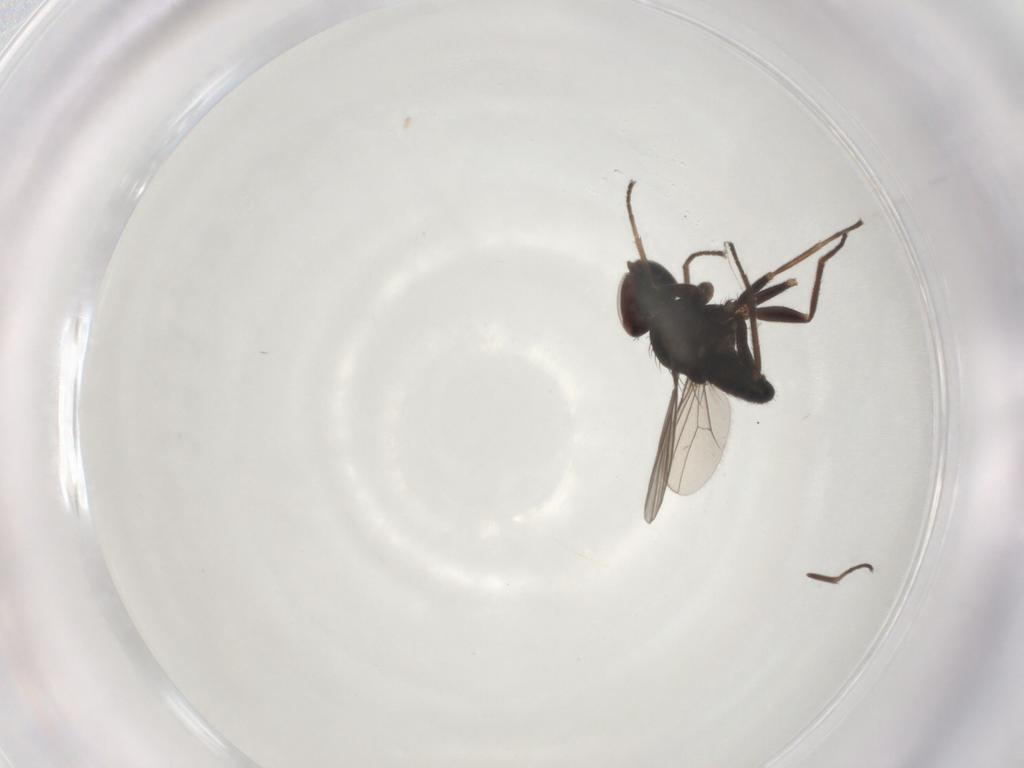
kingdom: Animalia
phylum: Arthropoda
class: Insecta
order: Diptera
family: Dolichopodidae
